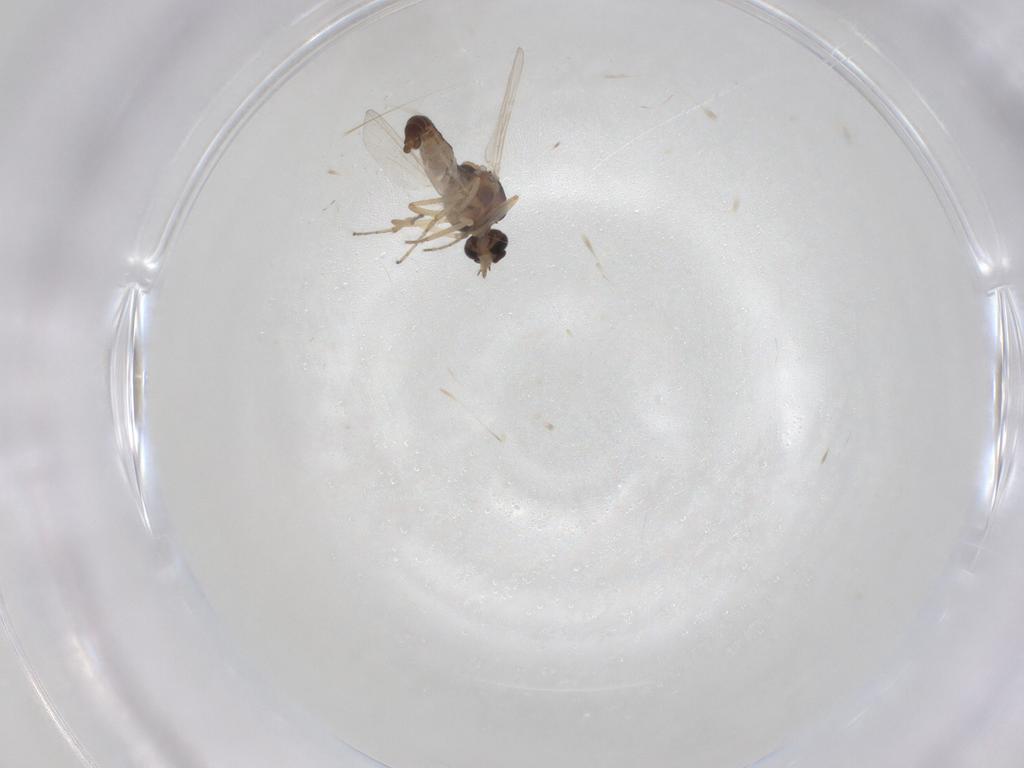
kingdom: Animalia
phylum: Arthropoda
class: Insecta
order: Diptera
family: Ceratopogonidae
